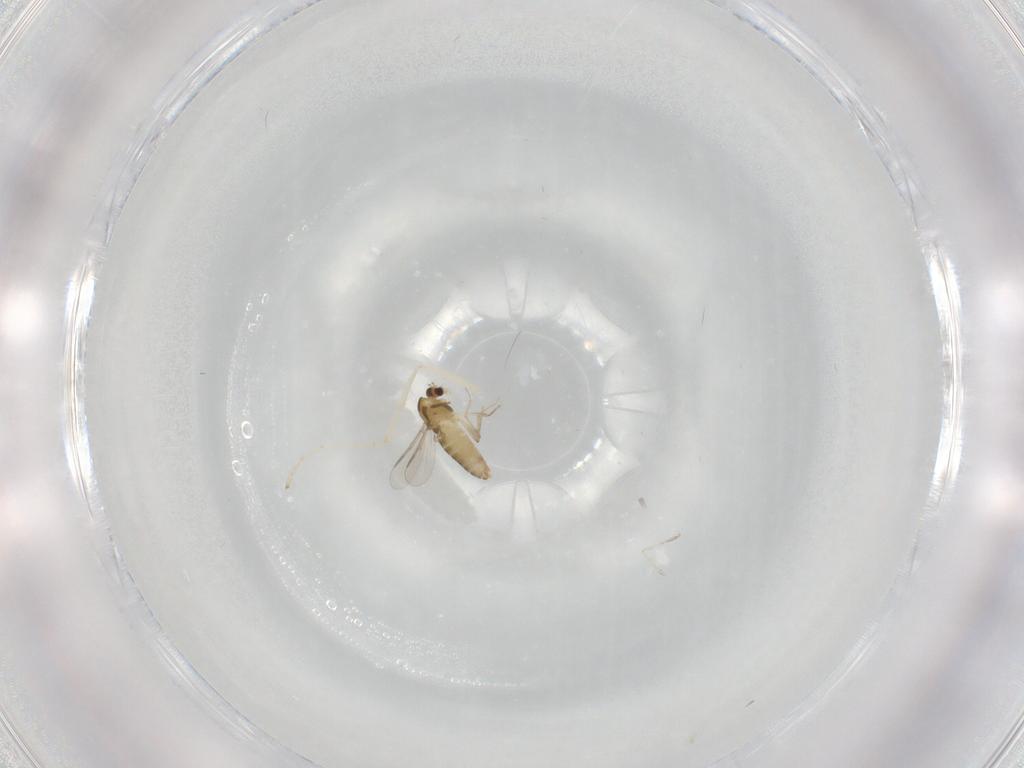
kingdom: Animalia
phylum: Arthropoda
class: Insecta
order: Diptera
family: Chironomidae
